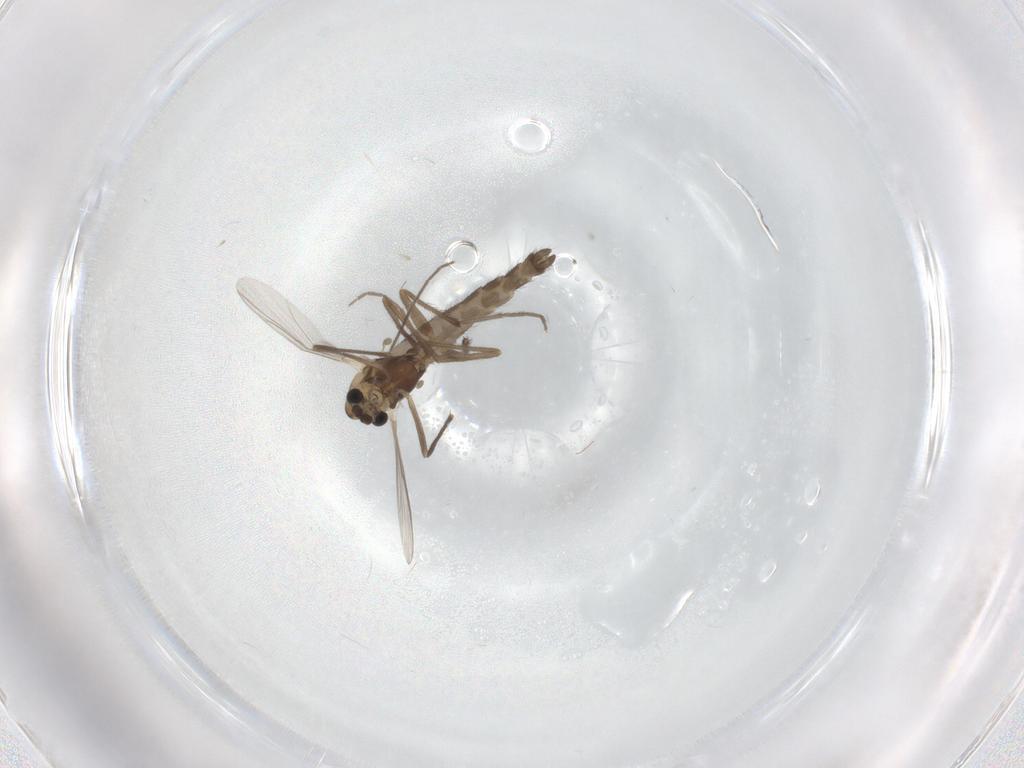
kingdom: Animalia
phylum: Arthropoda
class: Insecta
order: Diptera
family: Chironomidae
